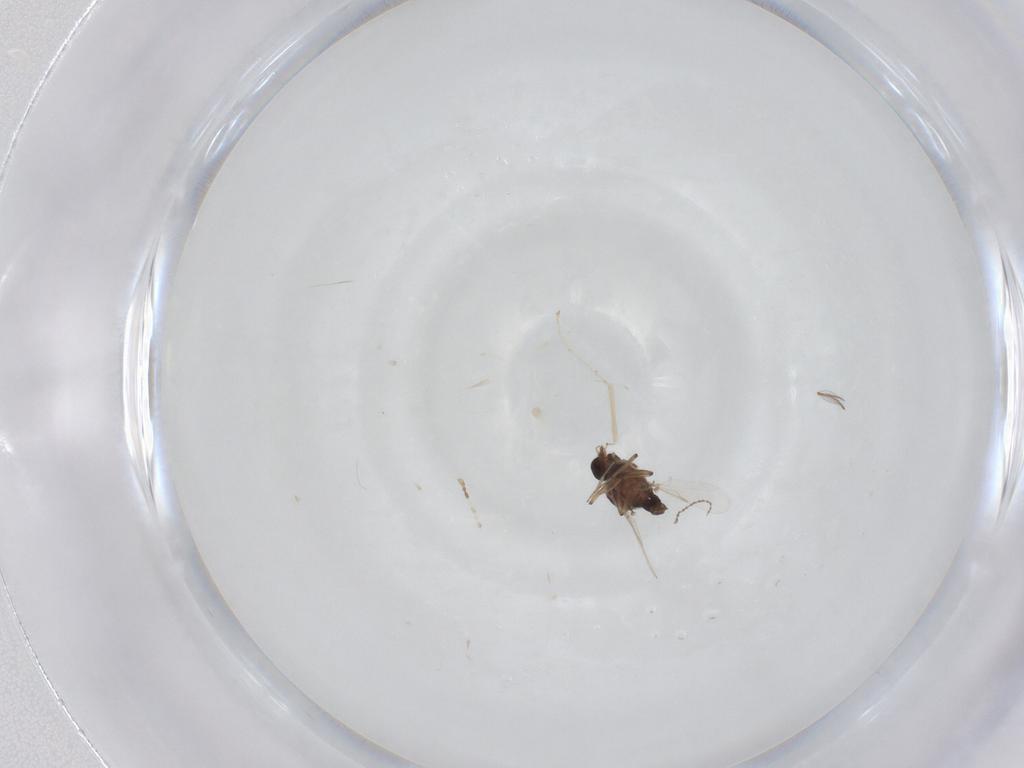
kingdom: Animalia
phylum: Arthropoda
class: Insecta
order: Diptera
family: Ceratopogonidae
